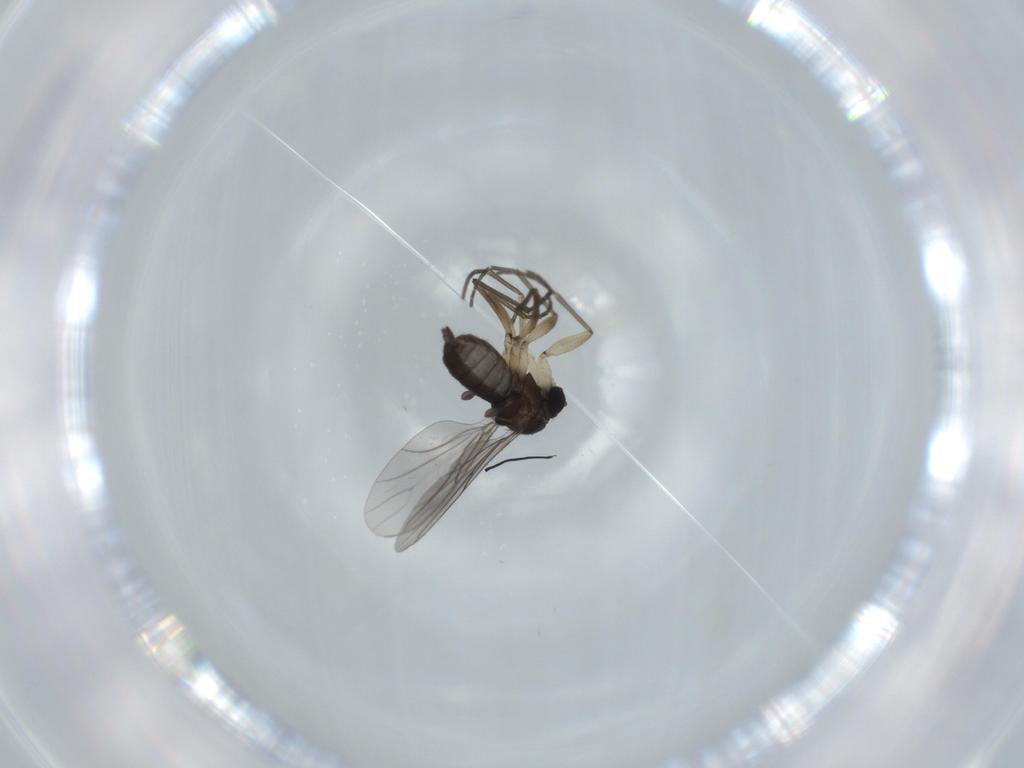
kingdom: Animalia
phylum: Arthropoda
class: Insecta
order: Diptera
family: Sciaridae
